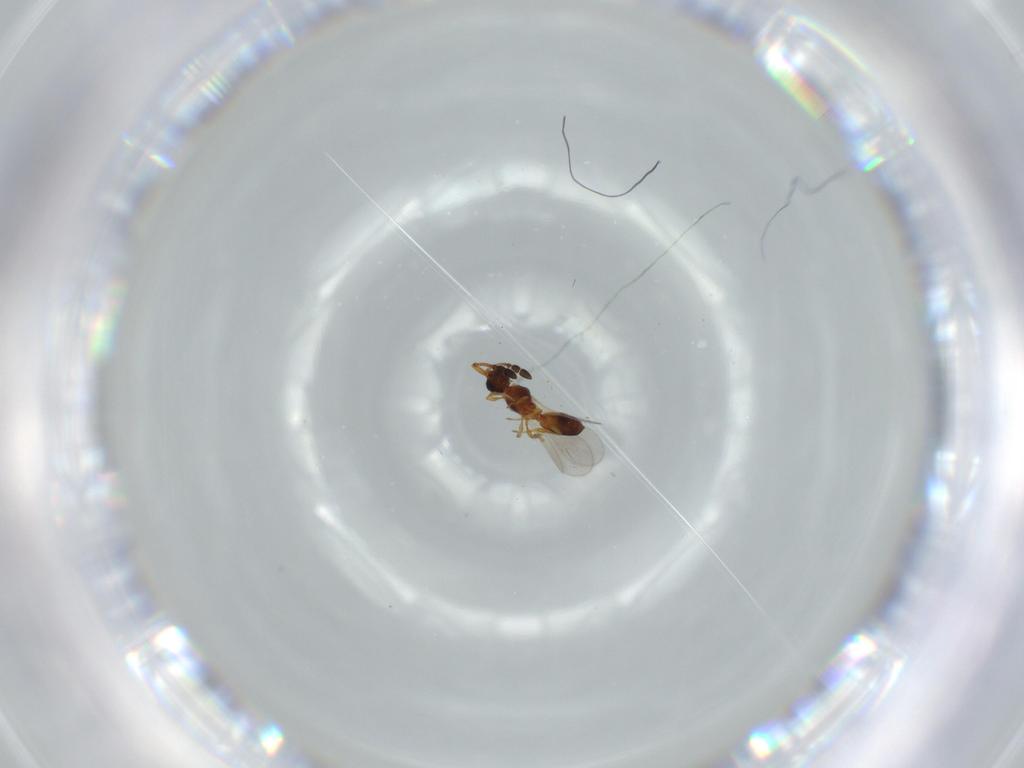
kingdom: Animalia
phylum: Arthropoda
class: Insecta
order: Hymenoptera
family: Diapriidae
